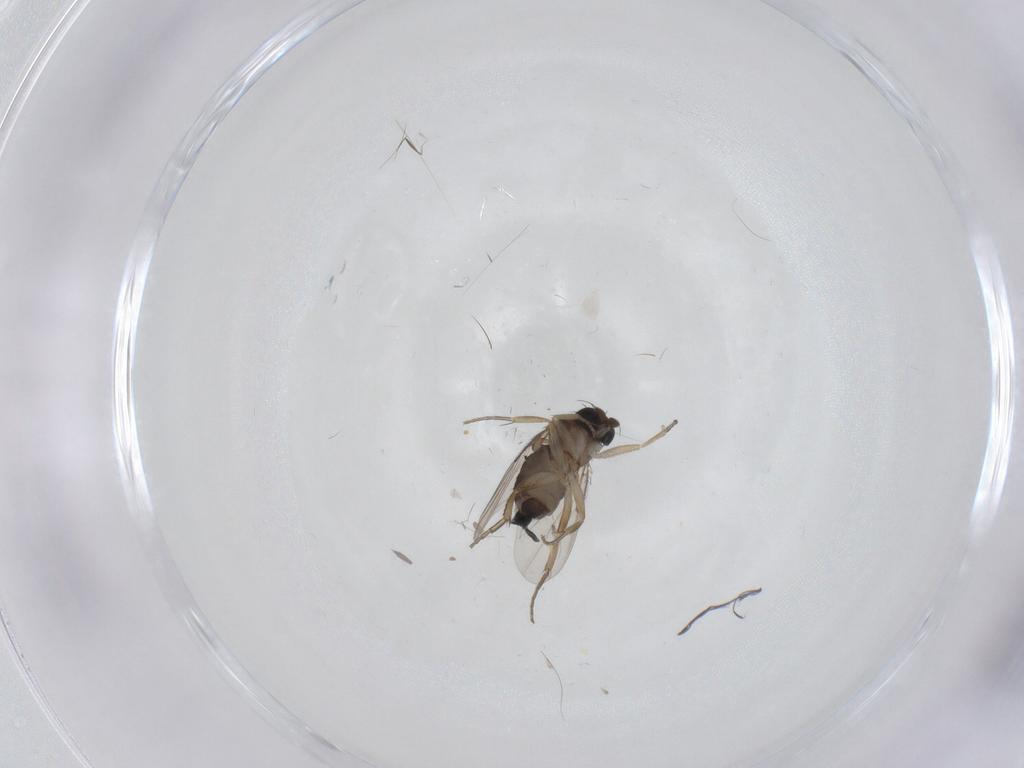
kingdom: Animalia
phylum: Arthropoda
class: Insecta
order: Diptera
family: Phoridae
